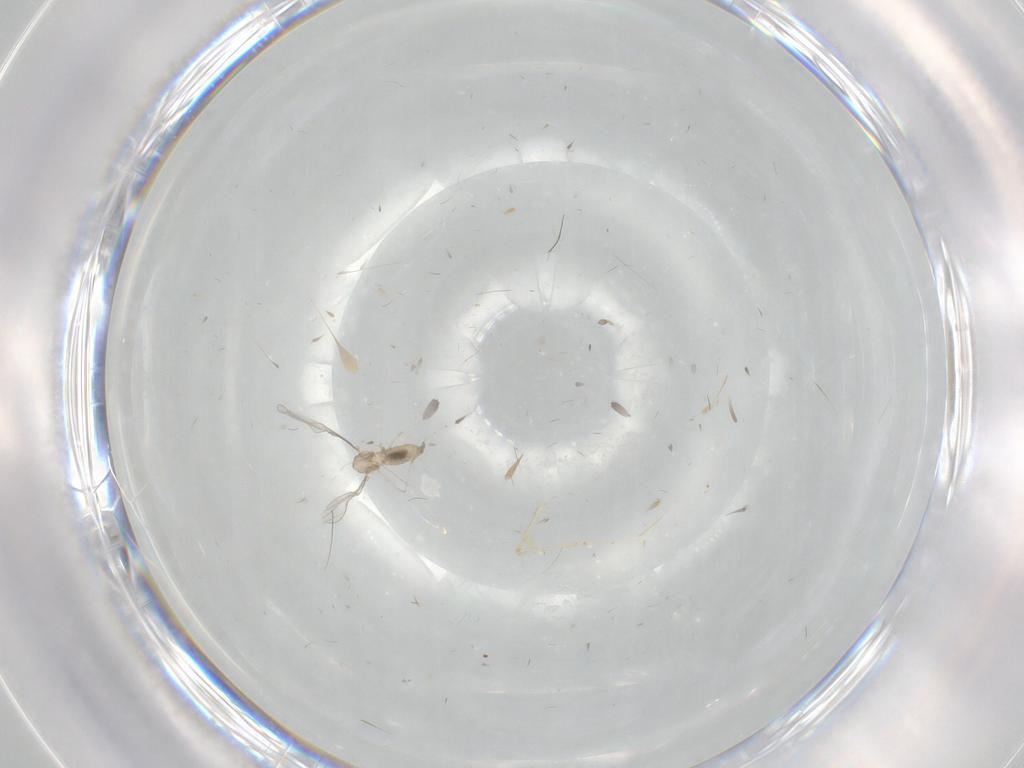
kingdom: Animalia
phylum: Arthropoda
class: Insecta
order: Diptera
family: Cecidomyiidae
